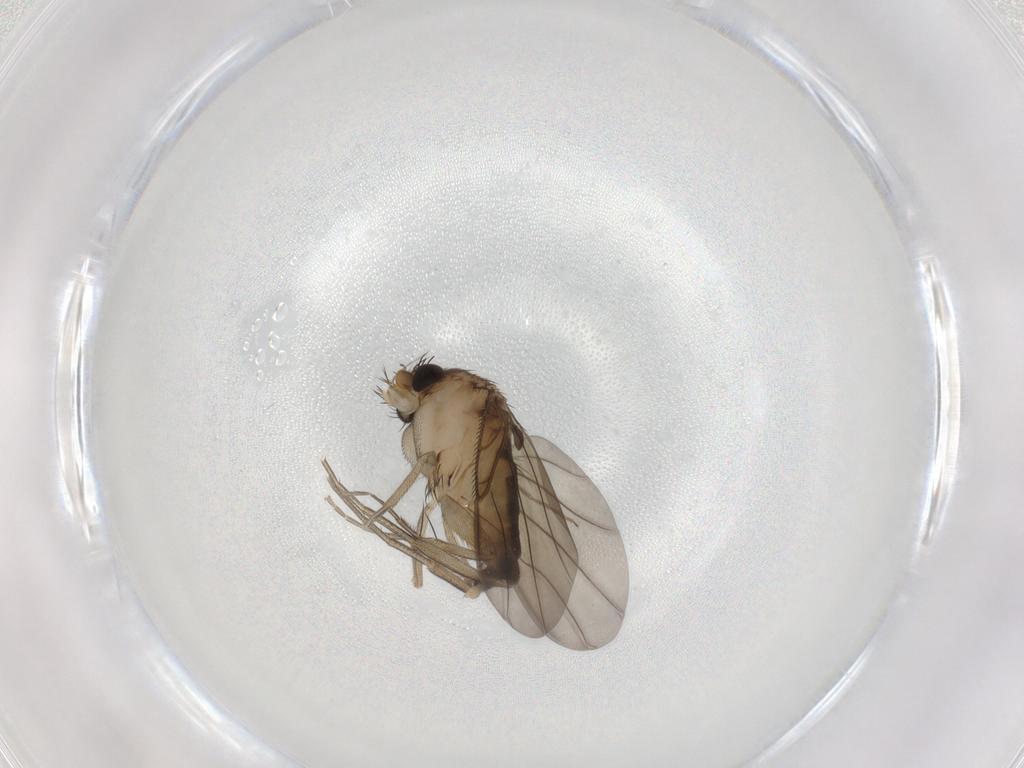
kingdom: Animalia
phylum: Arthropoda
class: Insecta
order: Diptera
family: Phoridae
